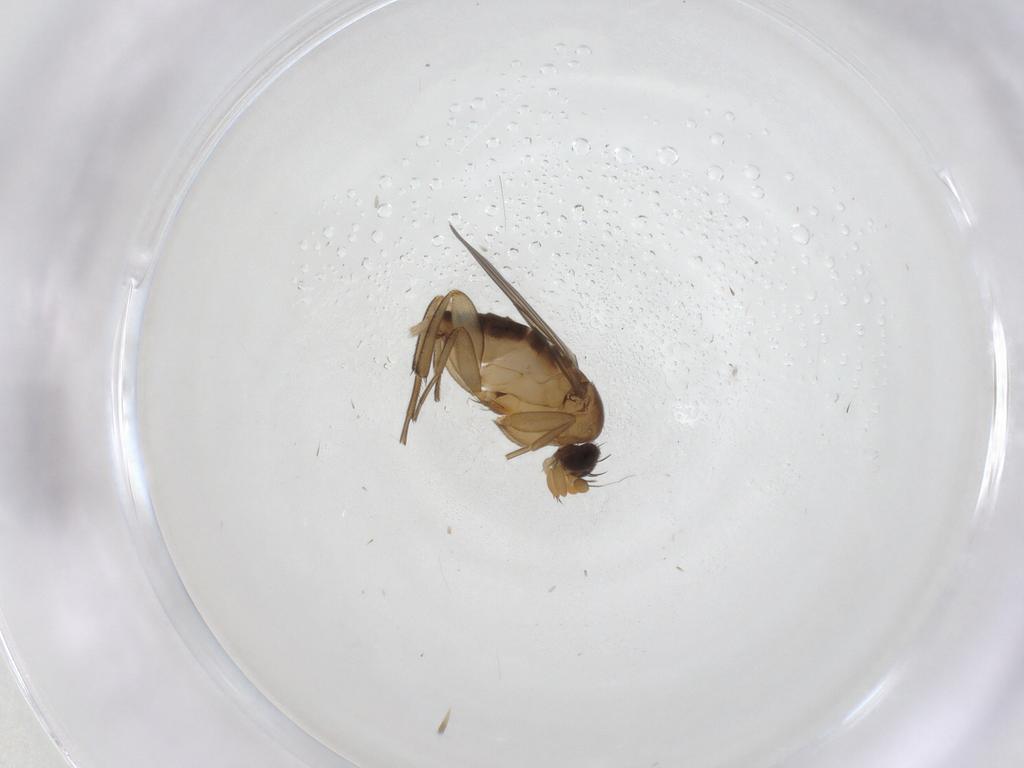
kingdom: Animalia
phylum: Arthropoda
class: Insecta
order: Diptera
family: Phoridae
